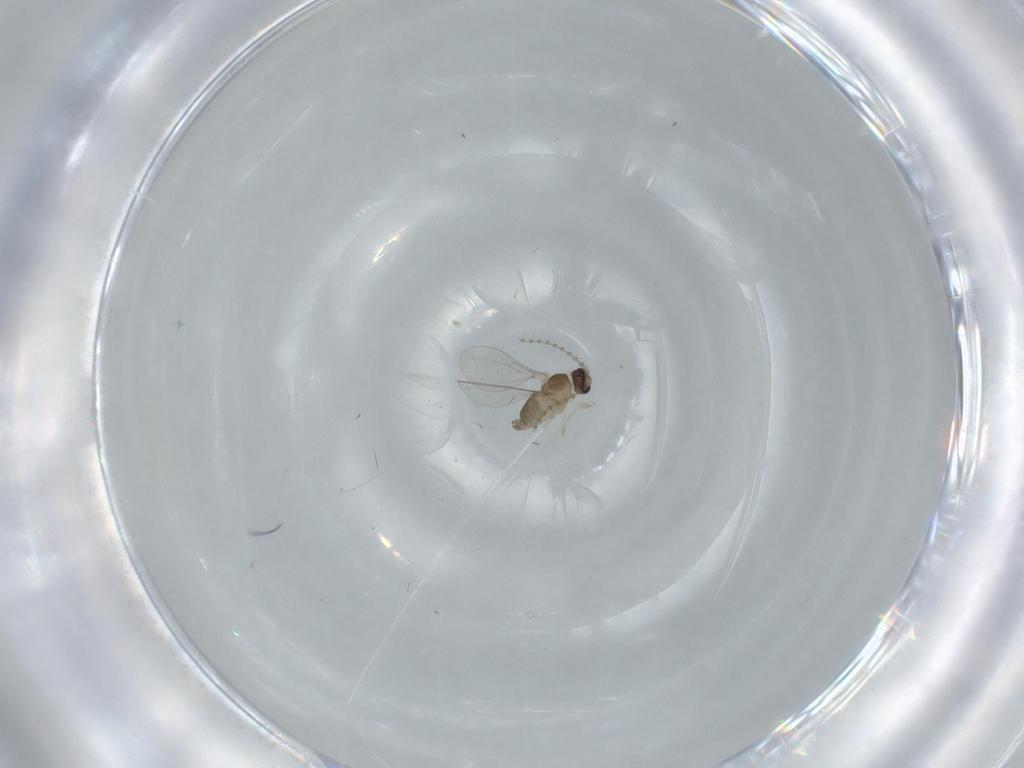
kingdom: Animalia
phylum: Arthropoda
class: Insecta
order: Diptera
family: Cecidomyiidae
